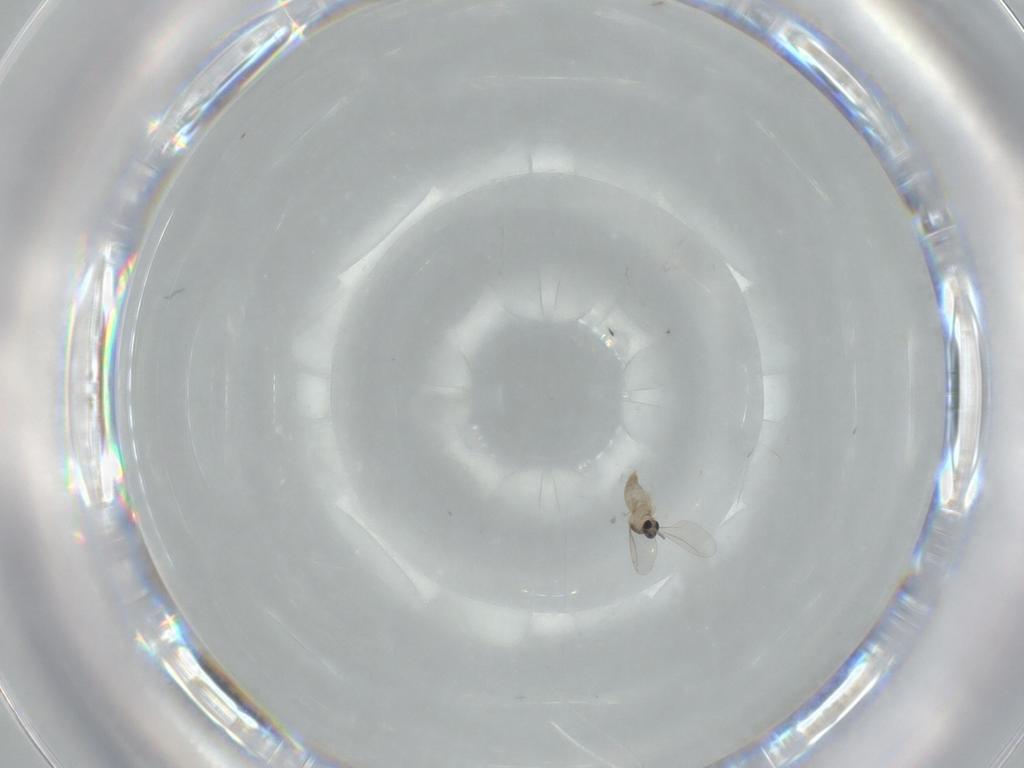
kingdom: Animalia
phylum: Arthropoda
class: Insecta
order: Diptera
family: Cecidomyiidae
